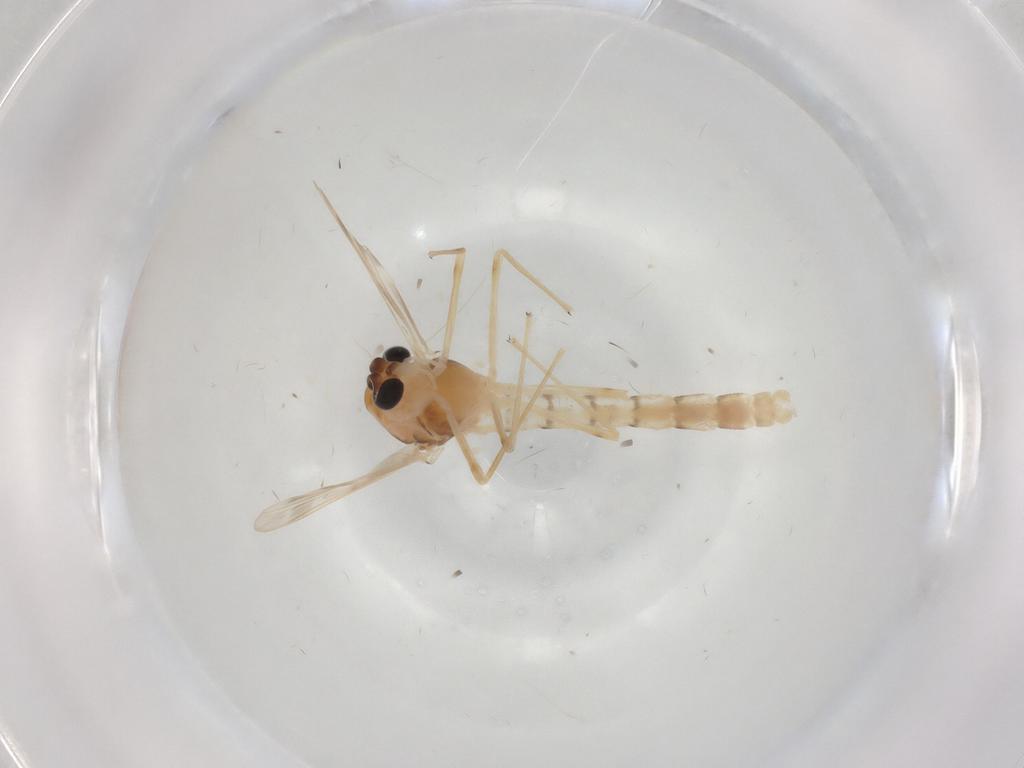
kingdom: Animalia
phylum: Arthropoda
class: Insecta
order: Diptera
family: Chironomidae
